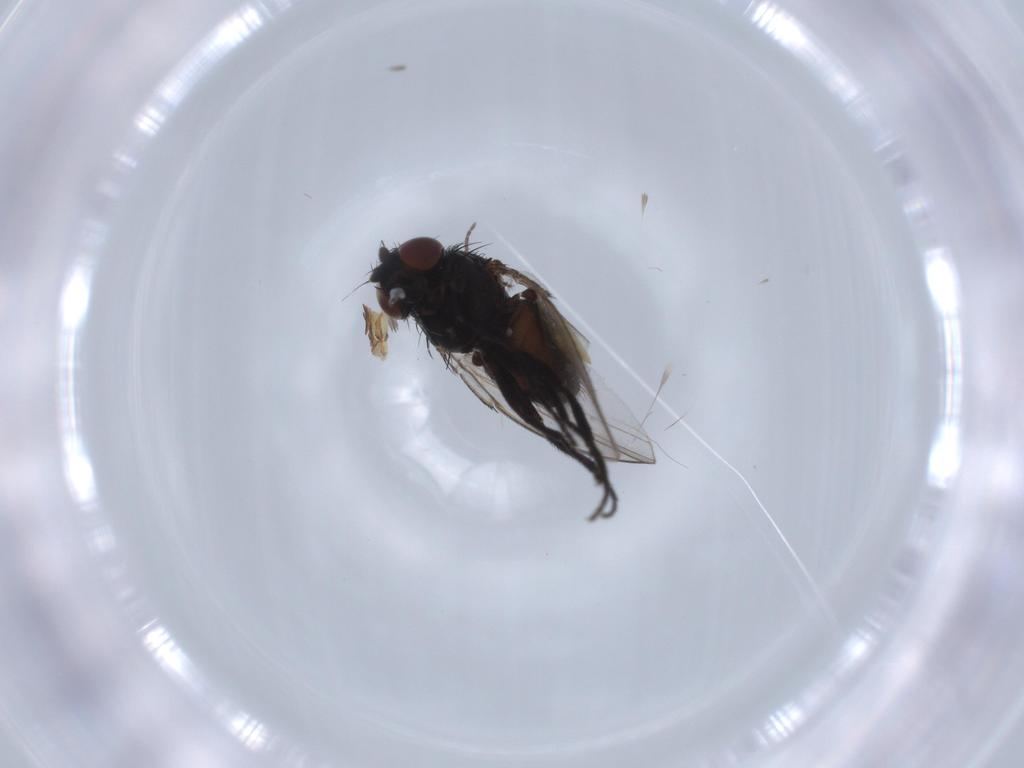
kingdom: Animalia
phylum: Arthropoda
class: Insecta
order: Diptera
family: Milichiidae
